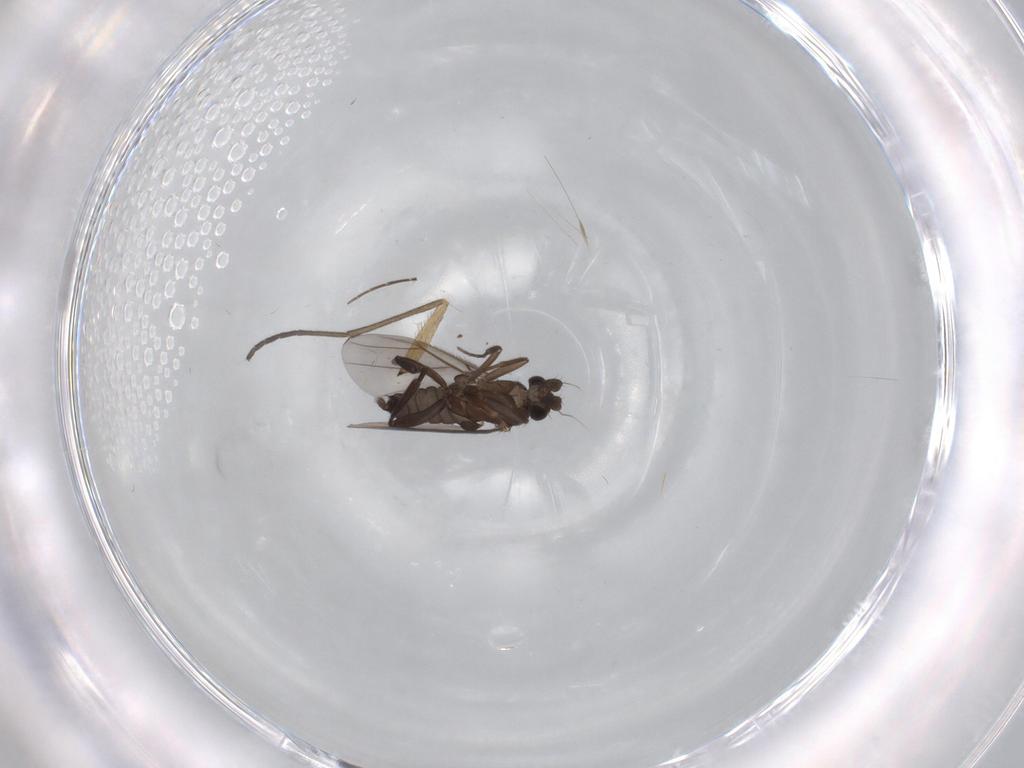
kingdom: Animalia
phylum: Arthropoda
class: Insecta
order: Diptera
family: Sciaridae
